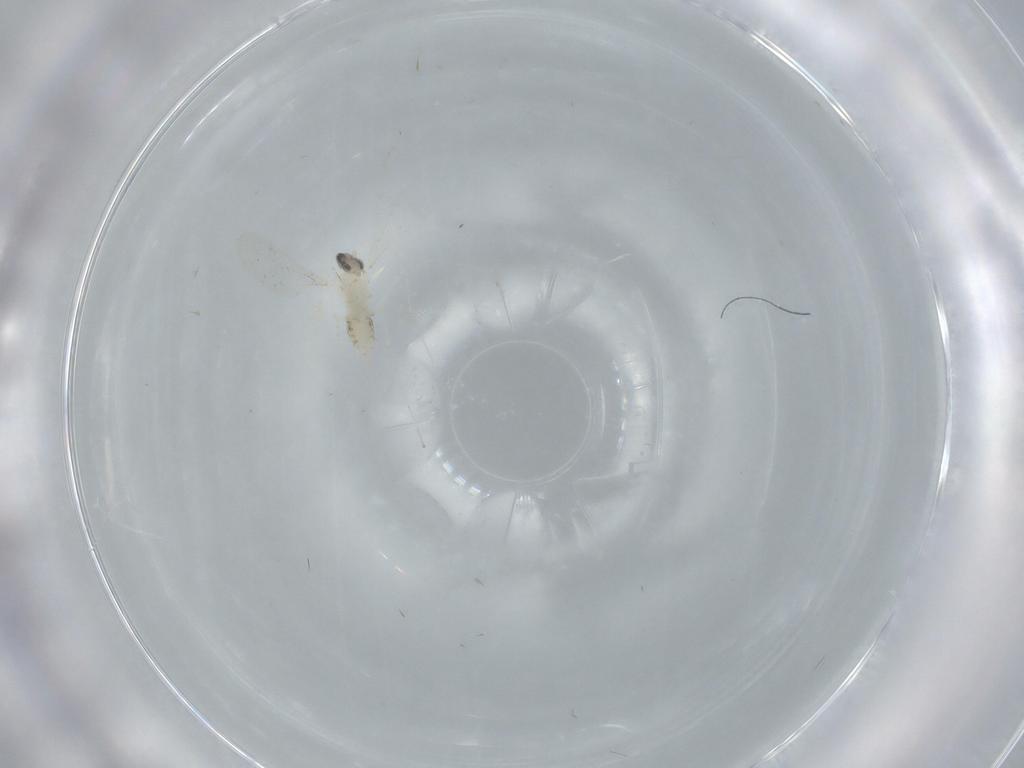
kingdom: Animalia
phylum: Arthropoda
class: Insecta
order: Diptera
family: Cecidomyiidae
